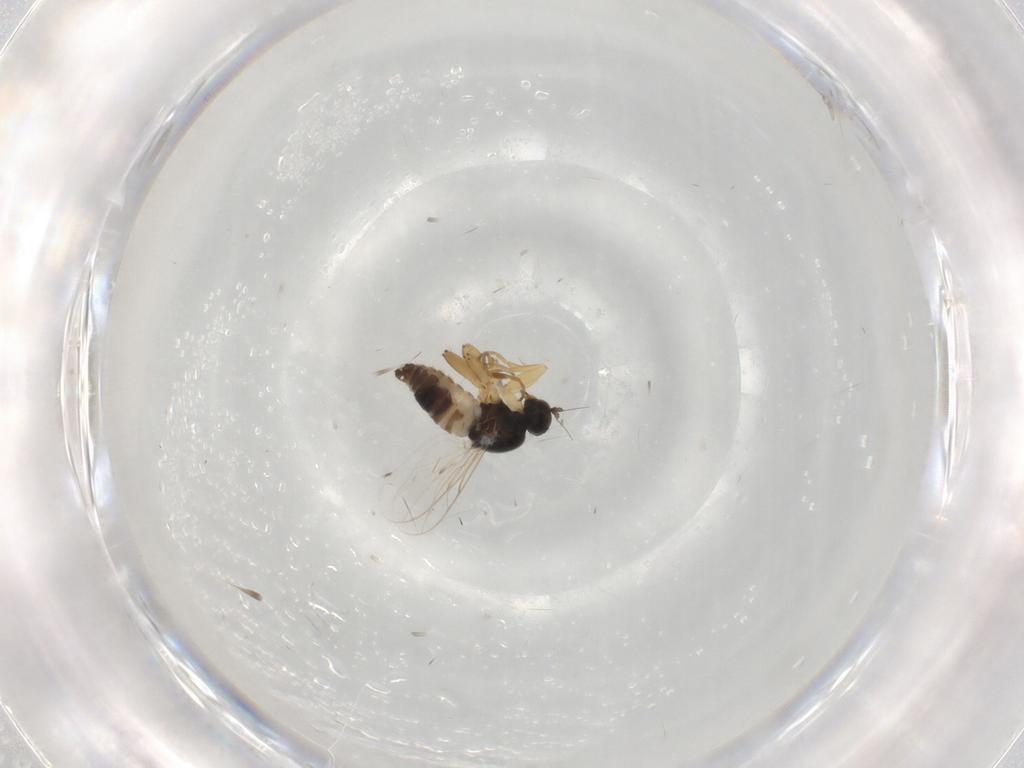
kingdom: Animalia
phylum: Arthropoda
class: Insecta
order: Diptera
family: Hybotidae
